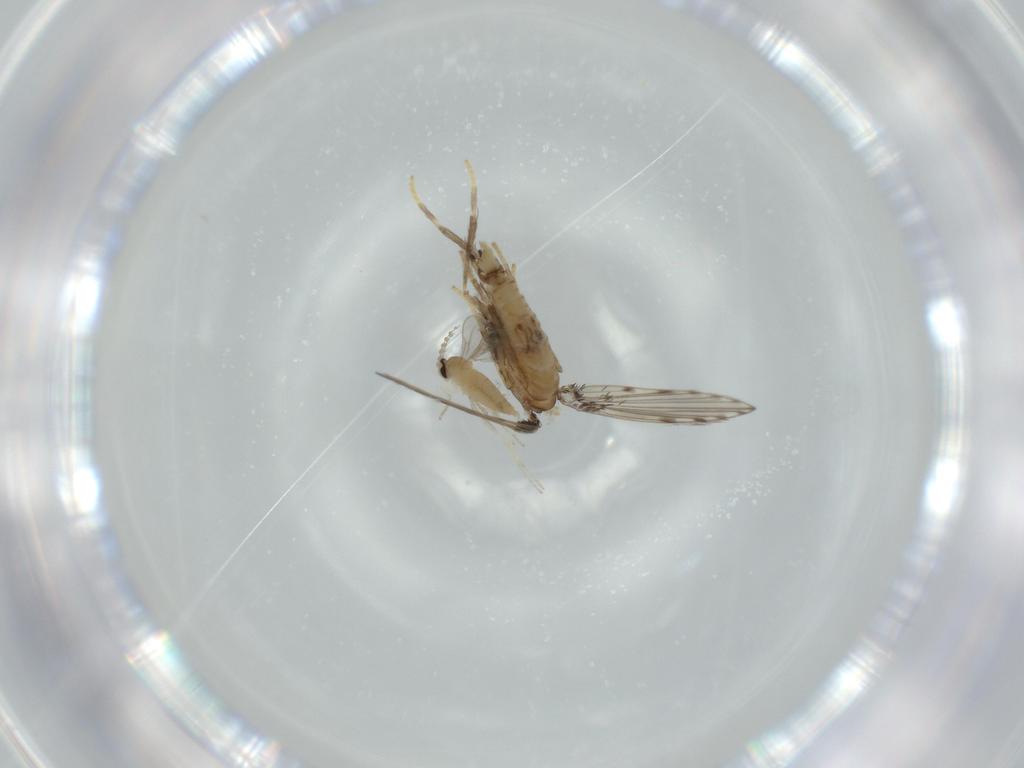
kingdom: Animalia
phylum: Arthropoda
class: Insecta
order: Diptera
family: Cecidomyiidae
